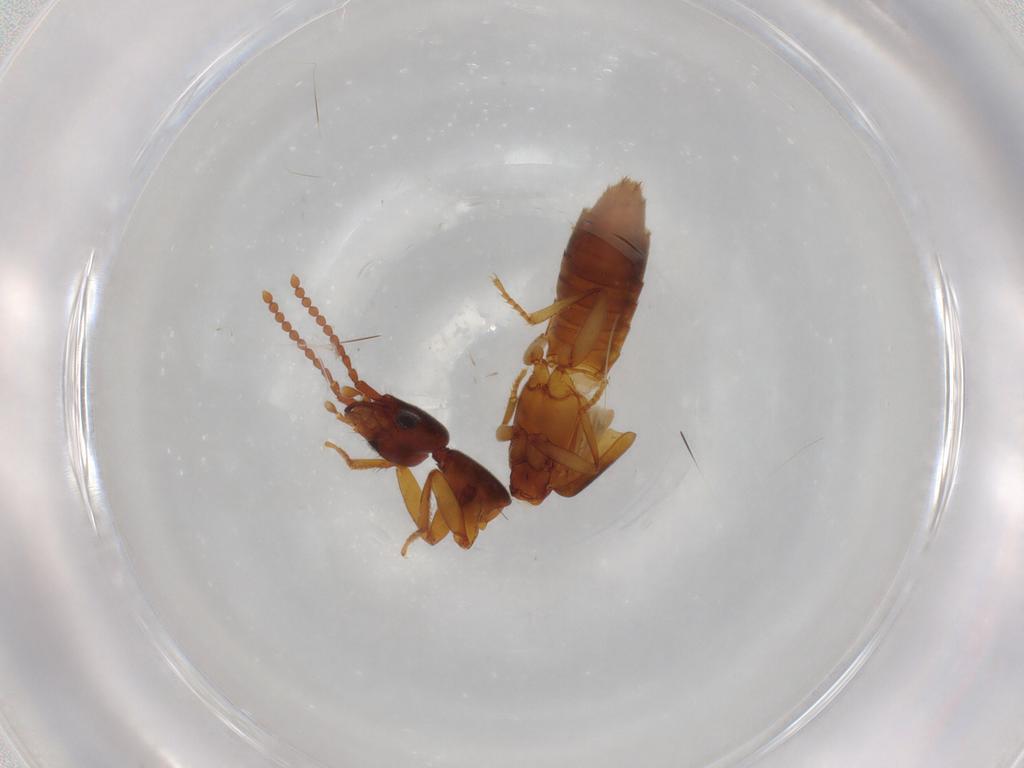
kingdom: Animalia
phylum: Arthropoda
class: Insecta
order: Coleoptera
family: Staphylinidae
